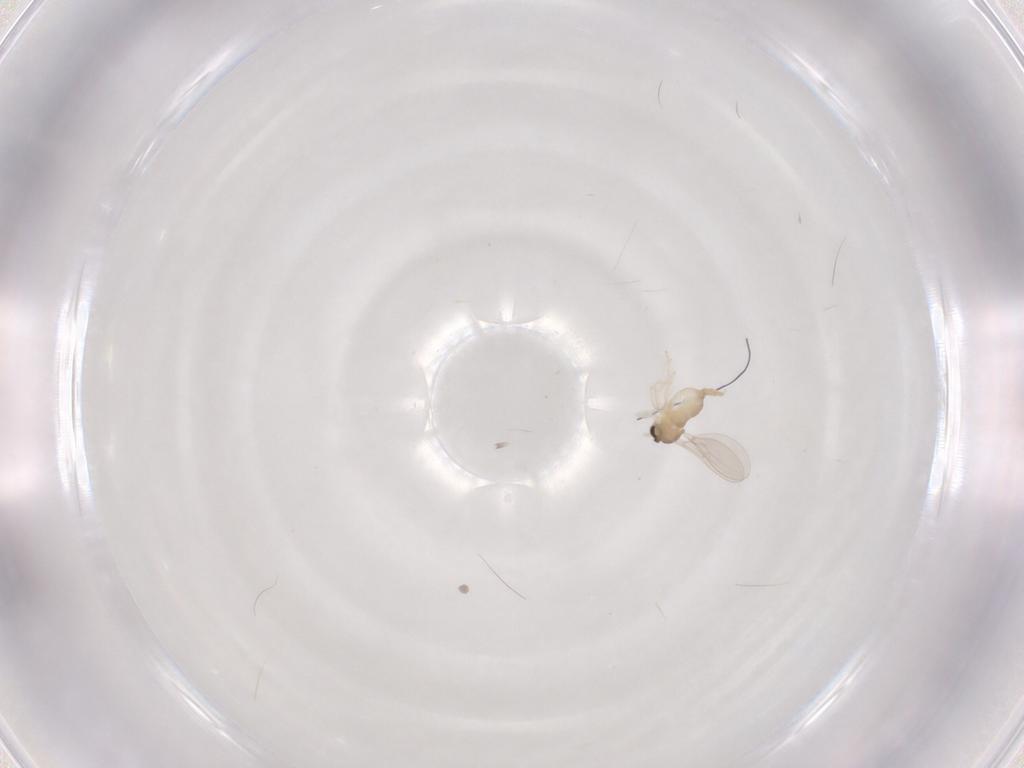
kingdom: Animalia
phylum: Arthropoda
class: Insecta
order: Diptera
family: Cecidomyiidae
